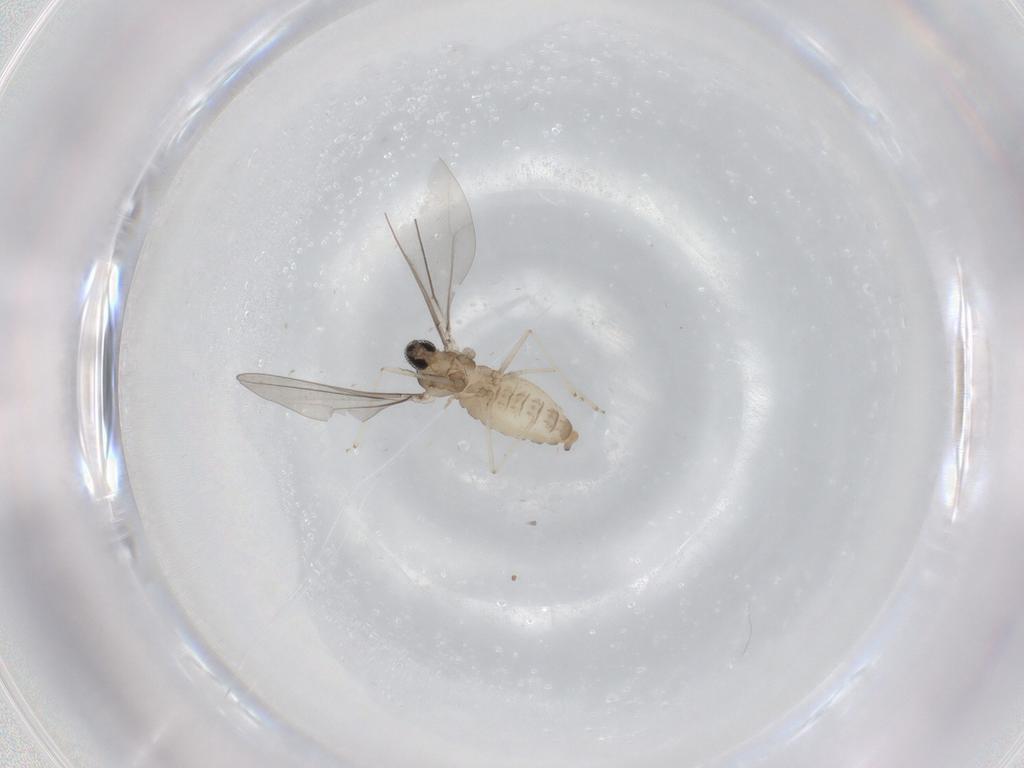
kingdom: Animalia
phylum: Arthropoda
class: Insecta
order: Diptera
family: Cecidomyiidae
